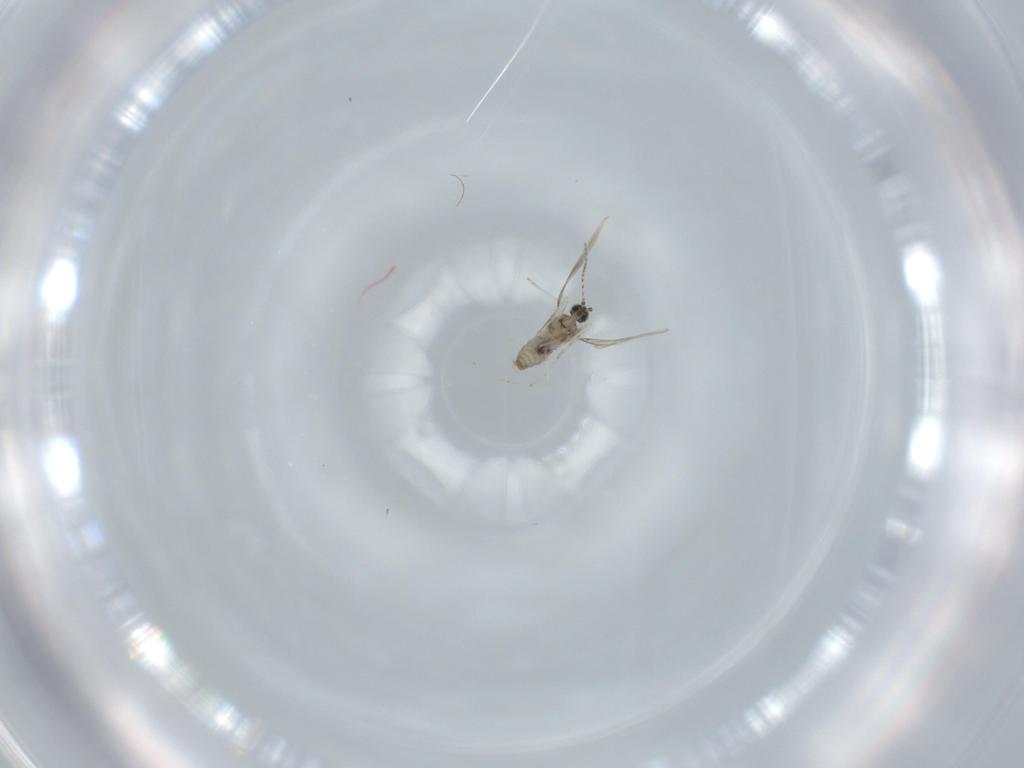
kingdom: Animalia
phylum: Arthropoda
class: Insecta
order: Diptera
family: Cecidomyiidae
